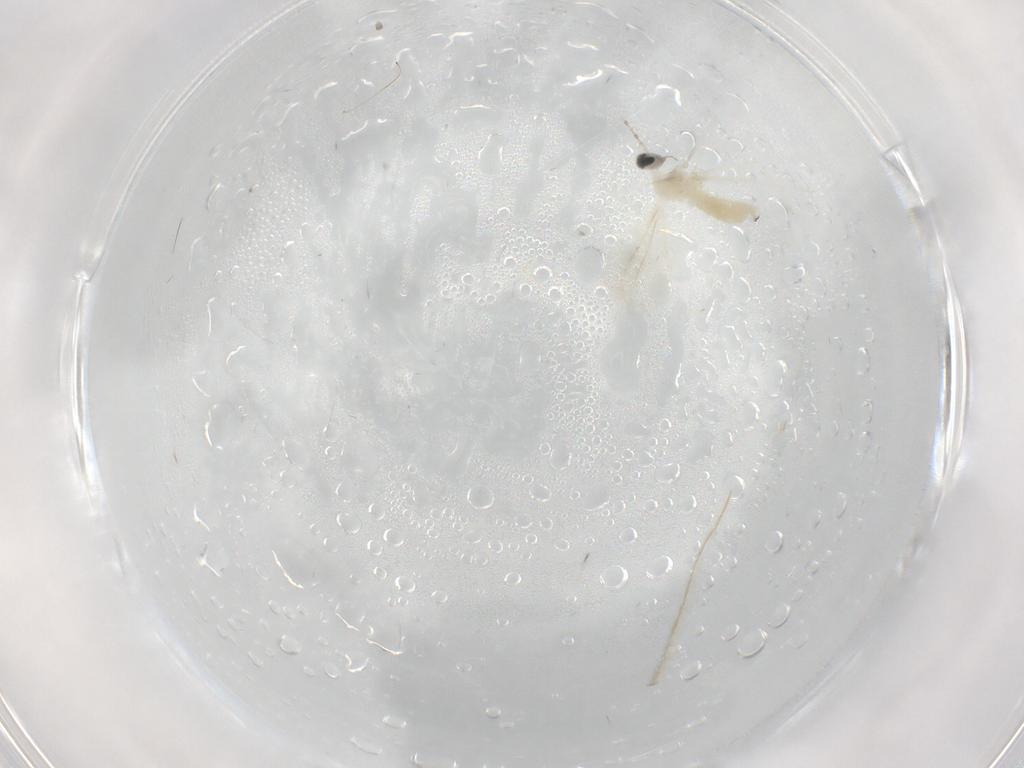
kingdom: Animalia
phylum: Arthropoda
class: Insecta
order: Diptera
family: Cecidomyiidae
